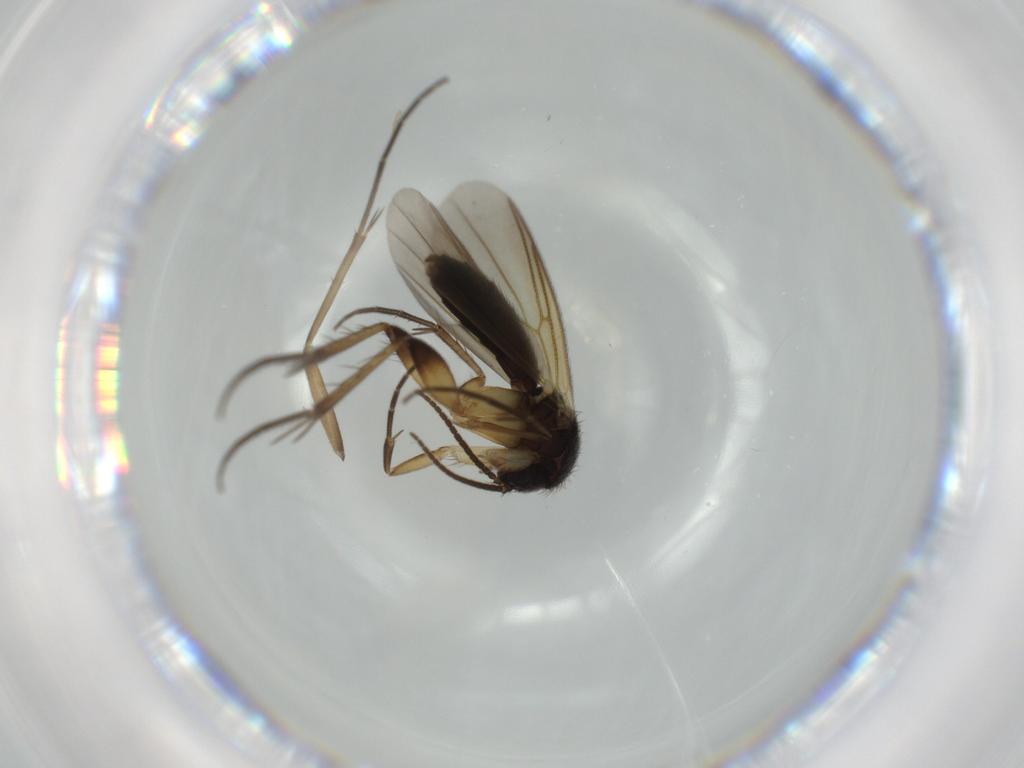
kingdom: Animalia
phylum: Arthropoda
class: Insecta
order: Diptera
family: Mycetophilidae
